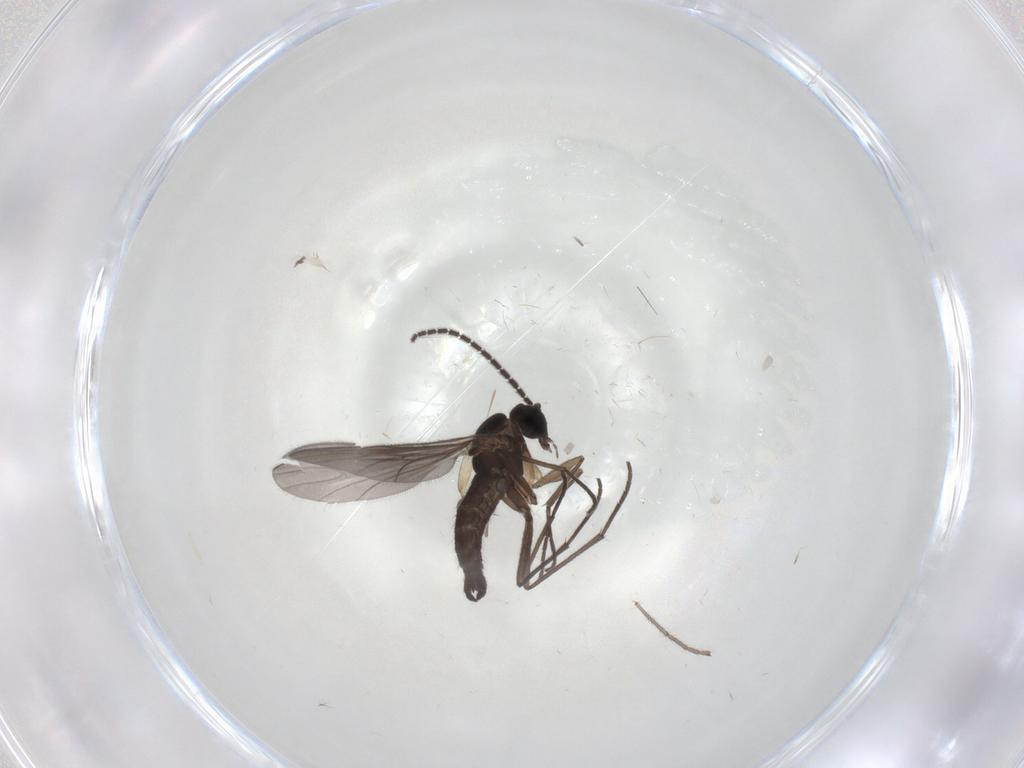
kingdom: Animalia
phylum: Arthropoda
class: Insecta
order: Diptera
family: Sciaridae
